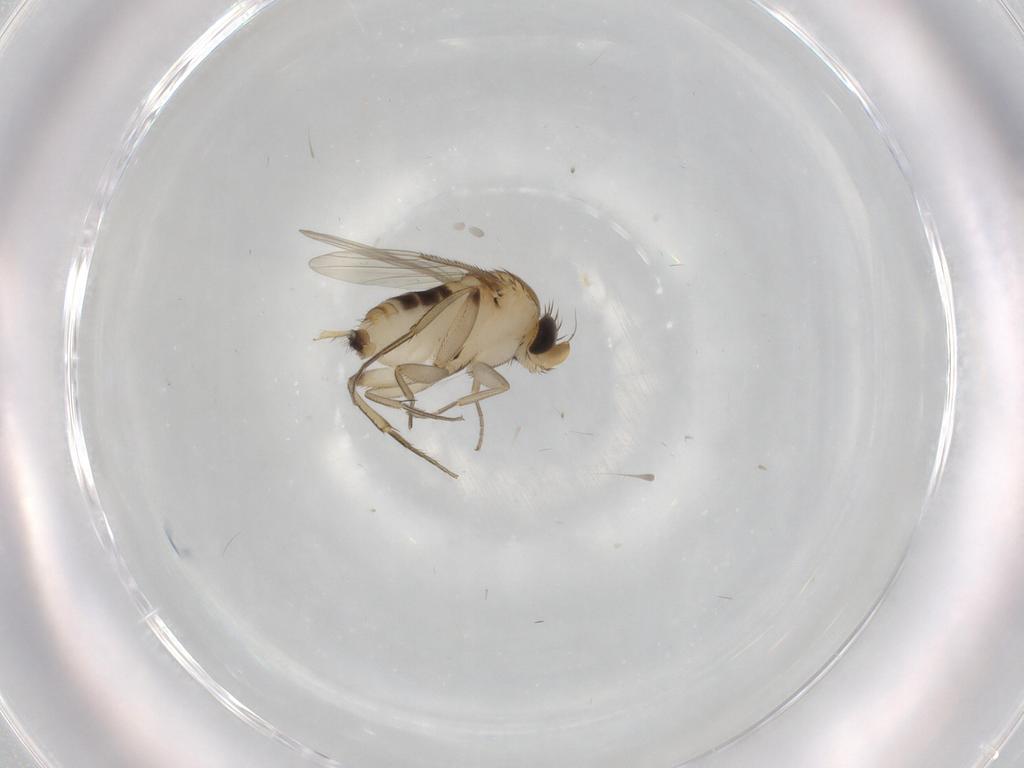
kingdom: Animalia
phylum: Arthropoda
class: Insecta
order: Diptera
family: Phoridae
